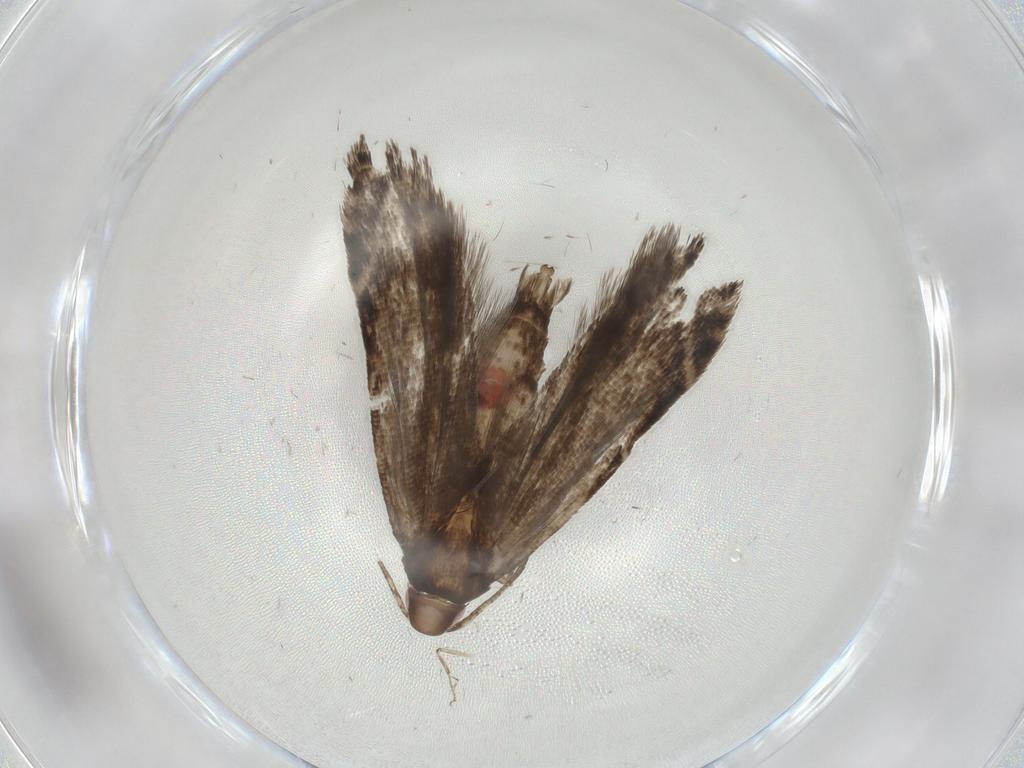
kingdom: Animalia
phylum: Arthropoda
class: Insecta
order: Lepidoptera
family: Gelechiidae
